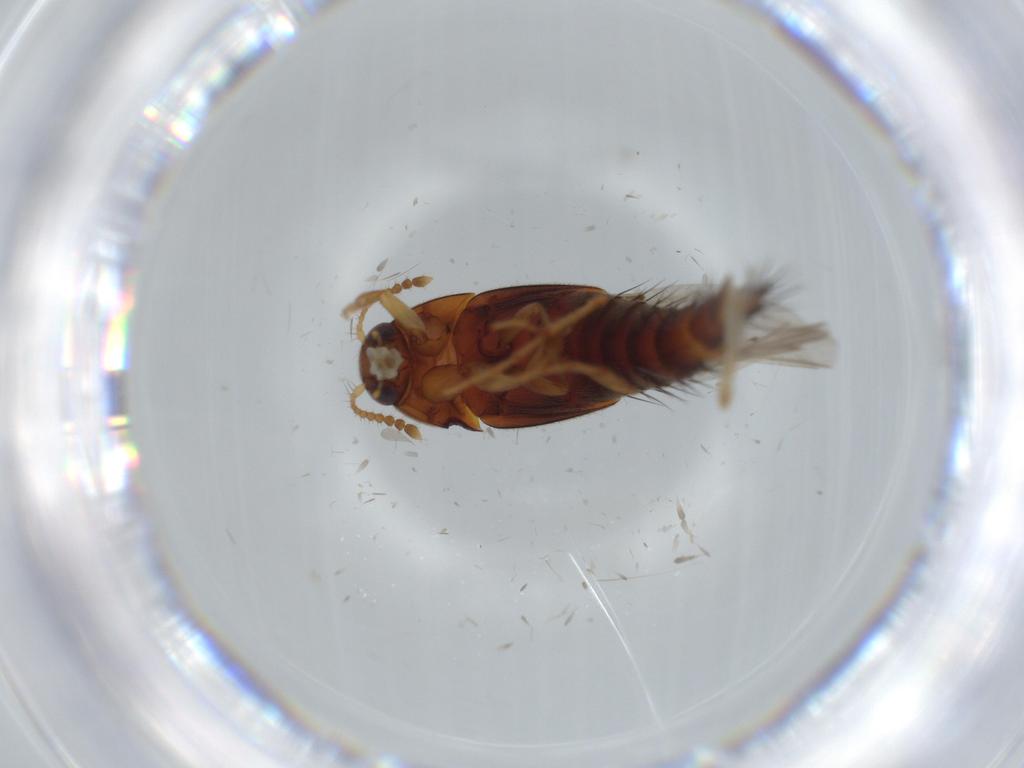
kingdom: Animalia
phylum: Arthropoda
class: Insecta
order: Coleoptera
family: Staphylinidae
